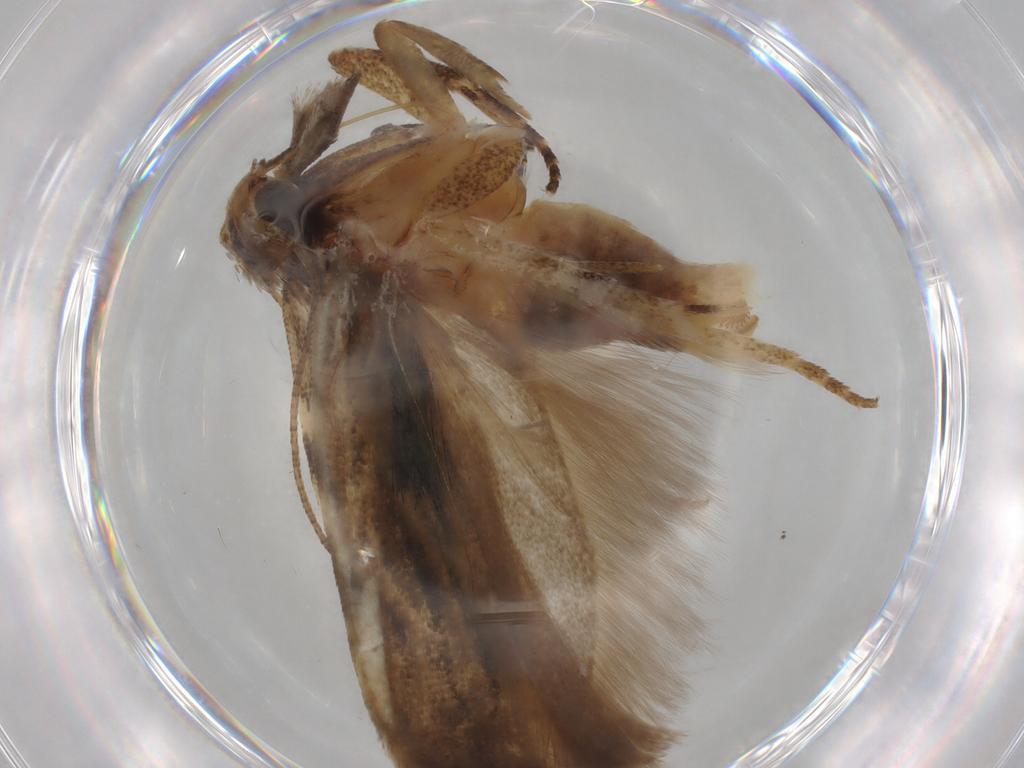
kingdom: Animalia
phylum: Arthropoda
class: Insecta
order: Lepidoptera
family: Gelechiidae
